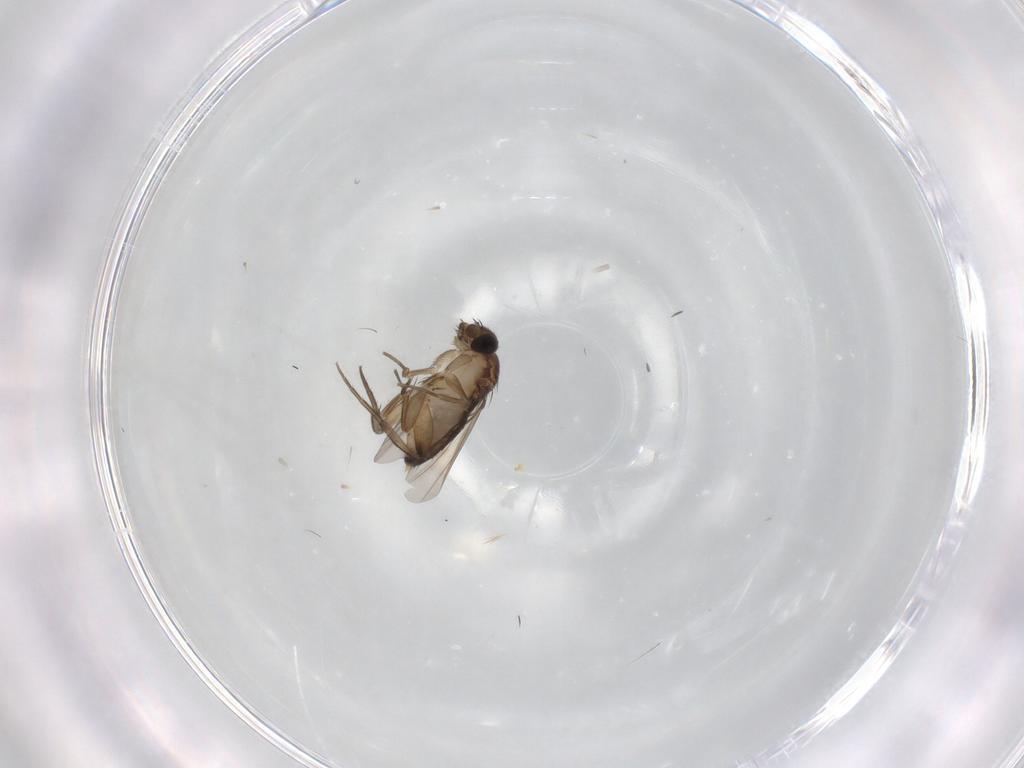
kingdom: Animalia
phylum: Arthropoda
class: Insecta
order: Diptera
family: Phoridae
